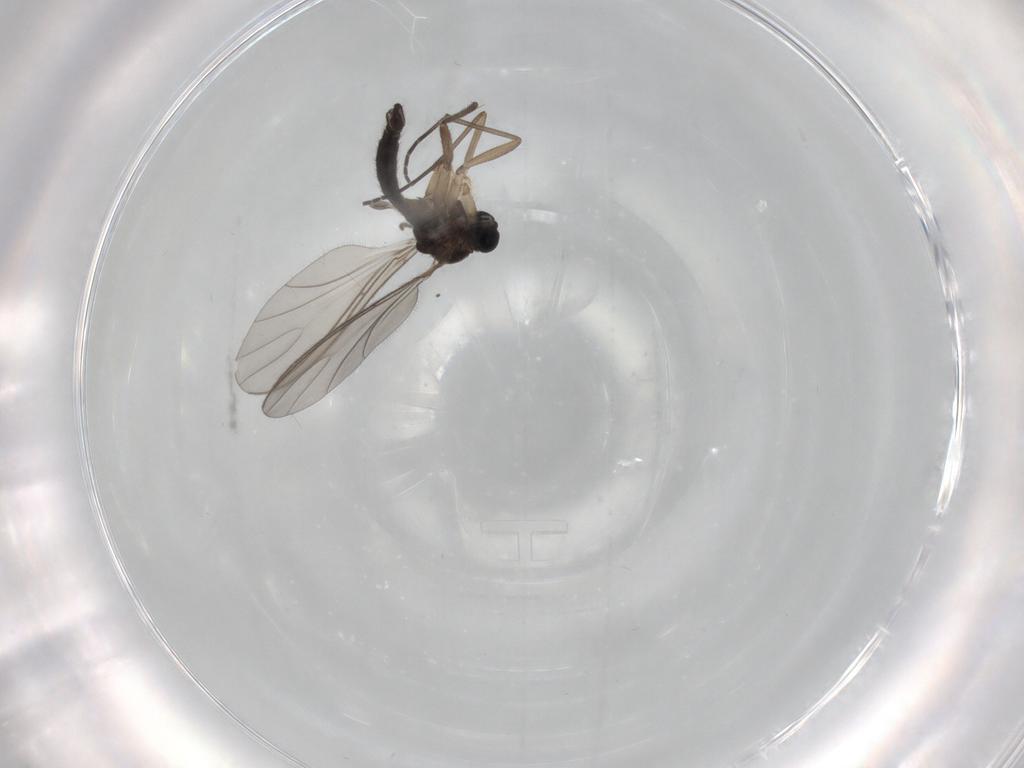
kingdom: Animalia
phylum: Arthropoda
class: Insecta
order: Diptera
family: Sciaridae
